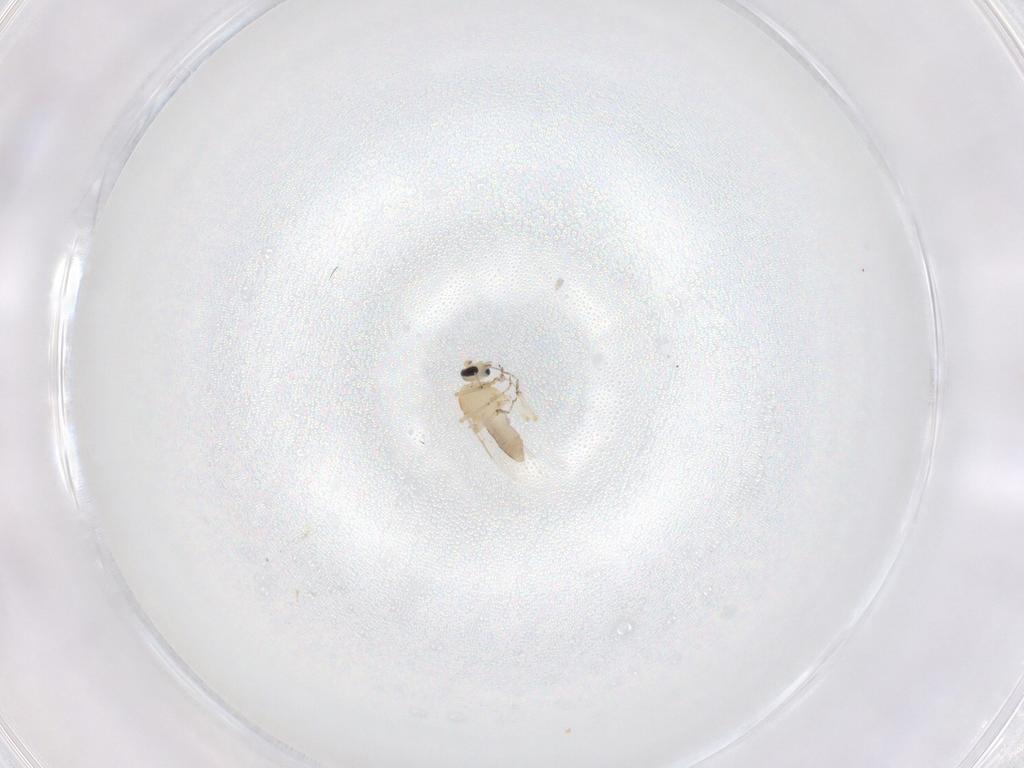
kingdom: Animalia
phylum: Arthropoda
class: Insecta
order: Diptera
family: Ceratopogonidae
